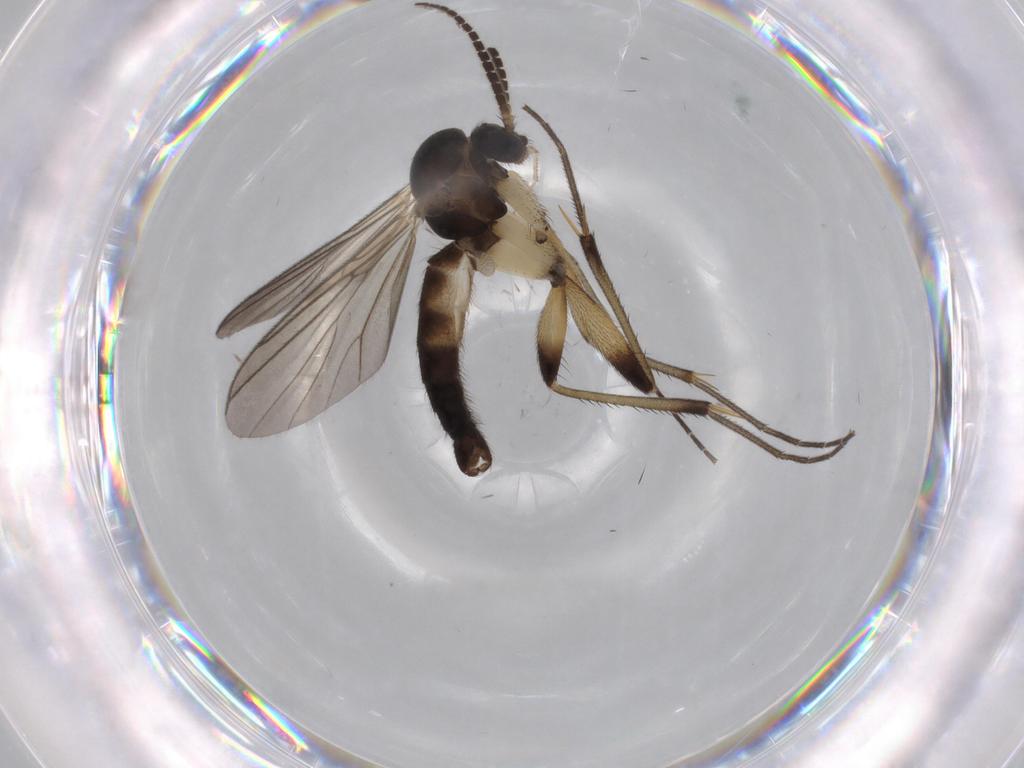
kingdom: Animalia
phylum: Arthropoda
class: Insecta
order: Diptera
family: Mycetophilidae
